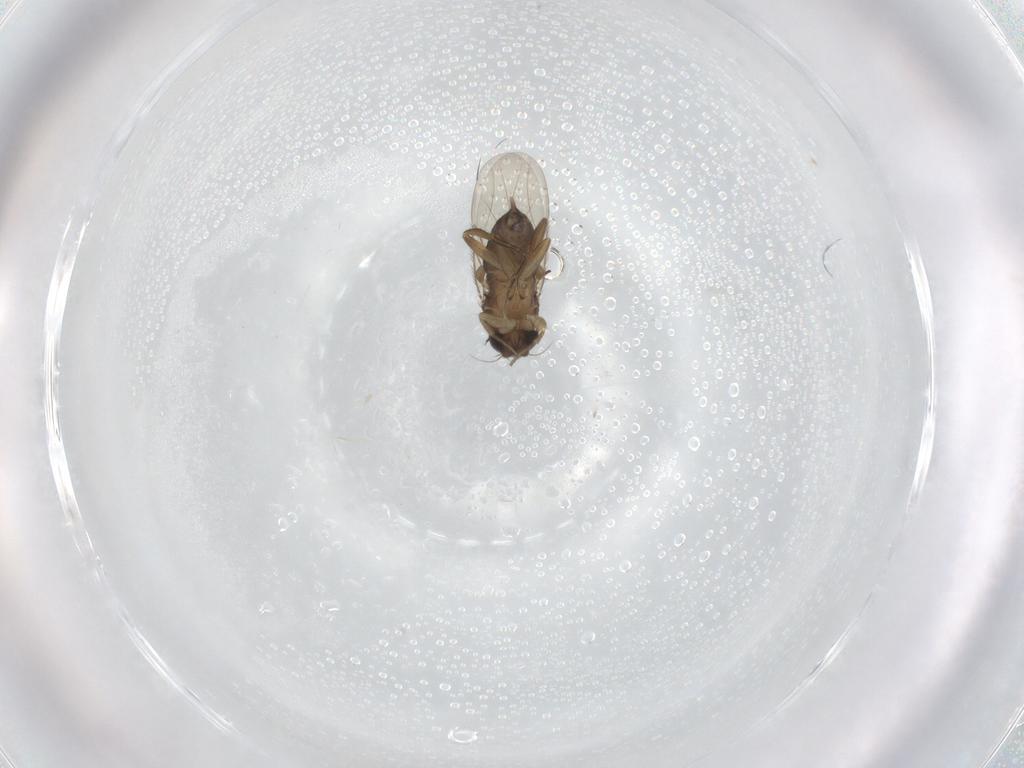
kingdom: Animalia
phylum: Arthropoda
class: Insecta
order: Diptera
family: Phoridae
